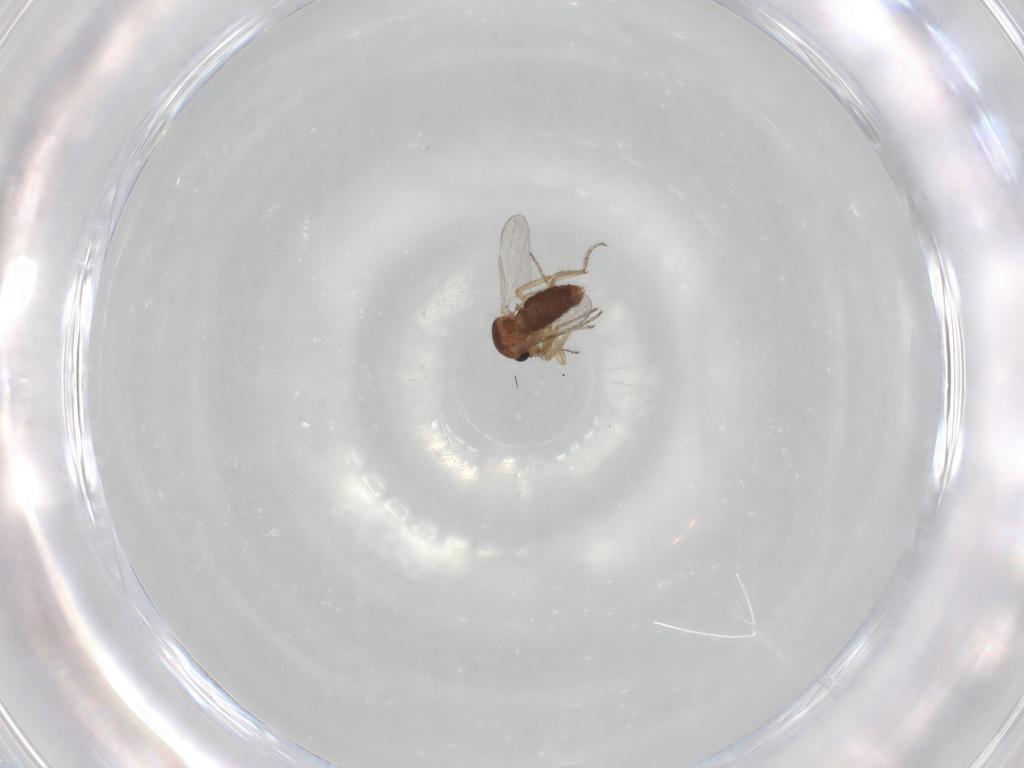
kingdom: Animalia
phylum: Arthropoda
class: Insecta
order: Diptera
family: Ceratopogonidae
